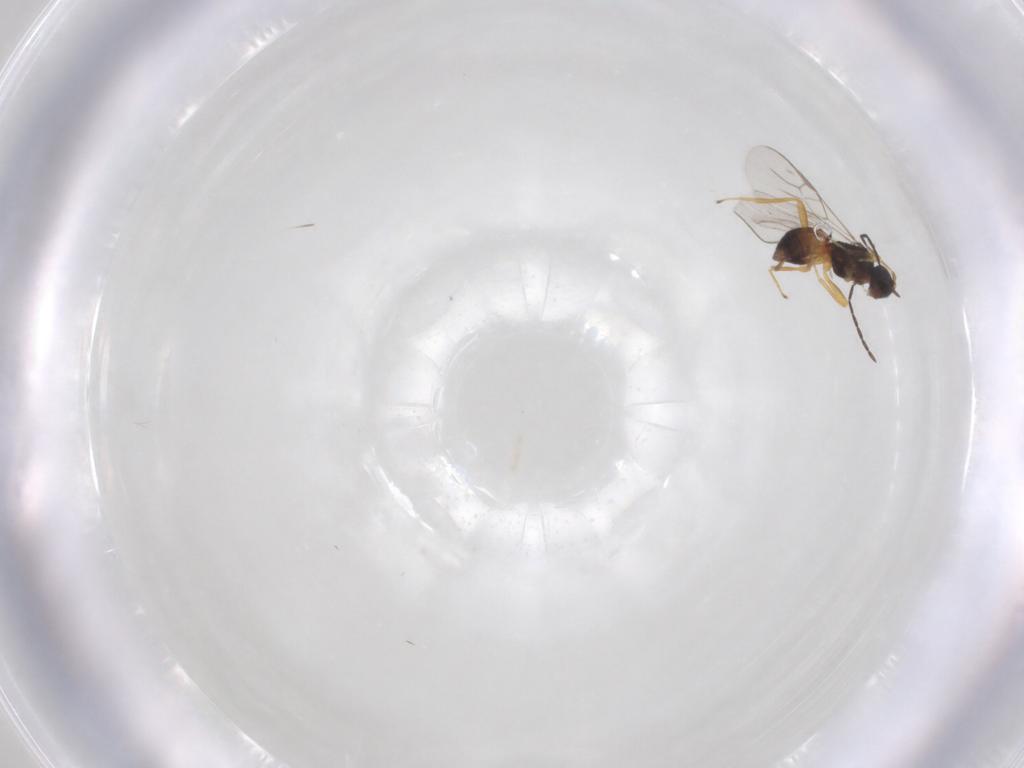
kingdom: Animalia
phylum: Arthropoda
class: Insecta
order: Hymenoptera
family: Braconidae
